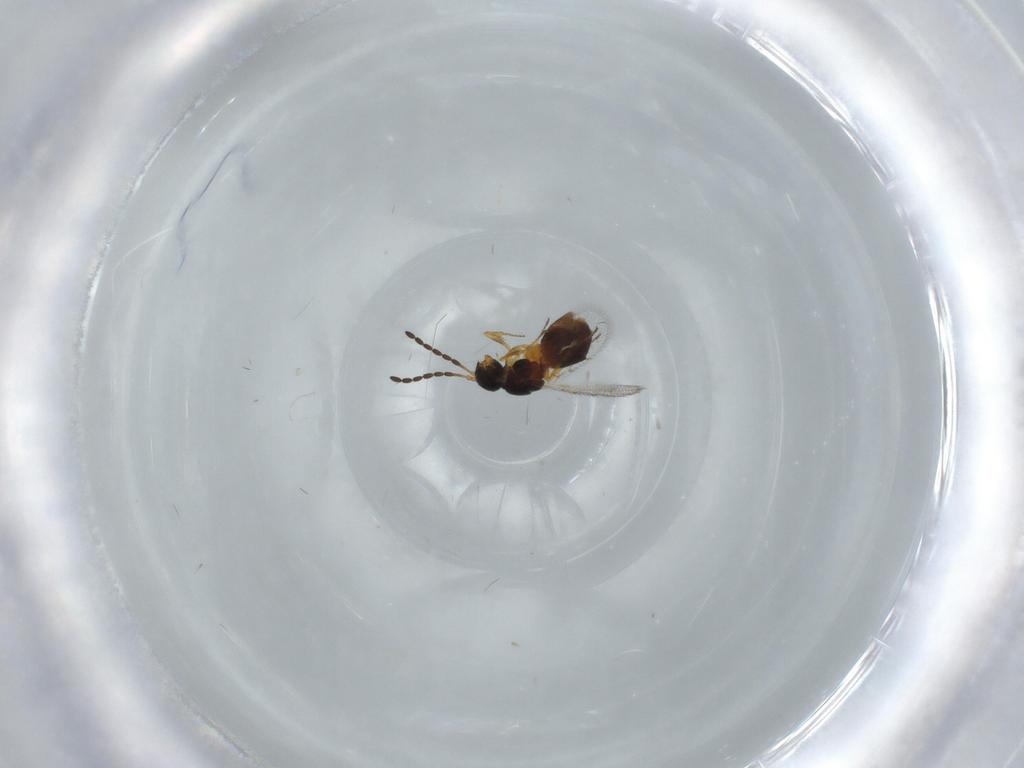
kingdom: Animalia
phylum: Arthropoda
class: Insecta
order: Hymenoptera
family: Figitidae
